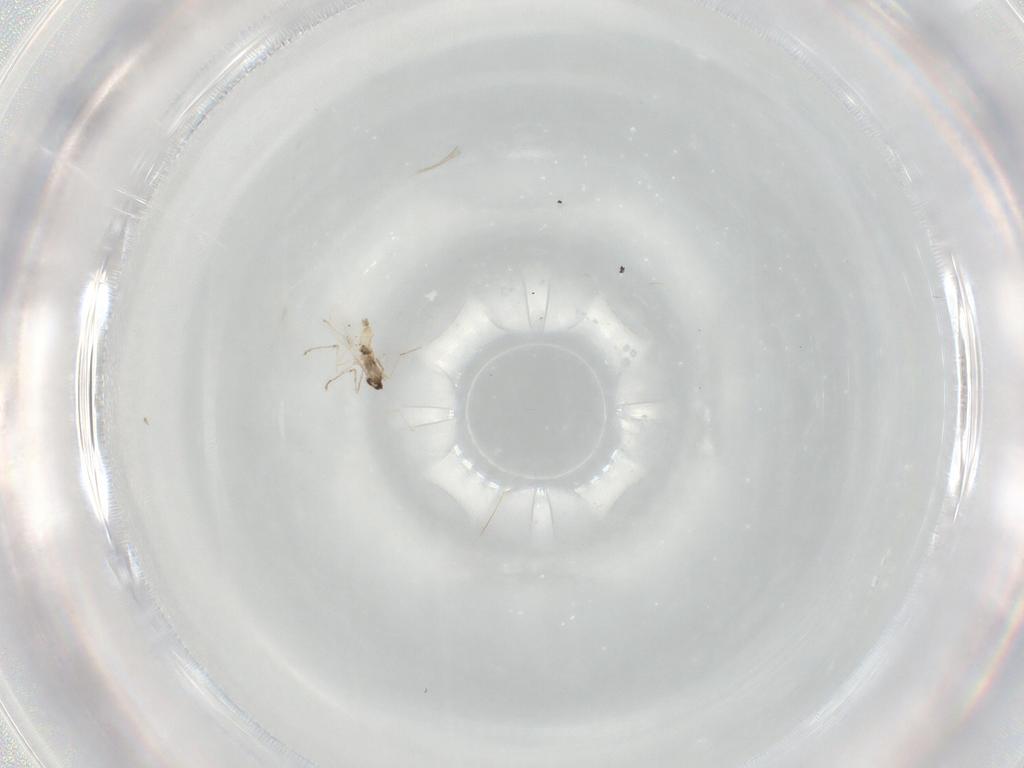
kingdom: Animalia
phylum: Arthropoda
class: Insecta
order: Diptera
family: Cecidomyiidae
